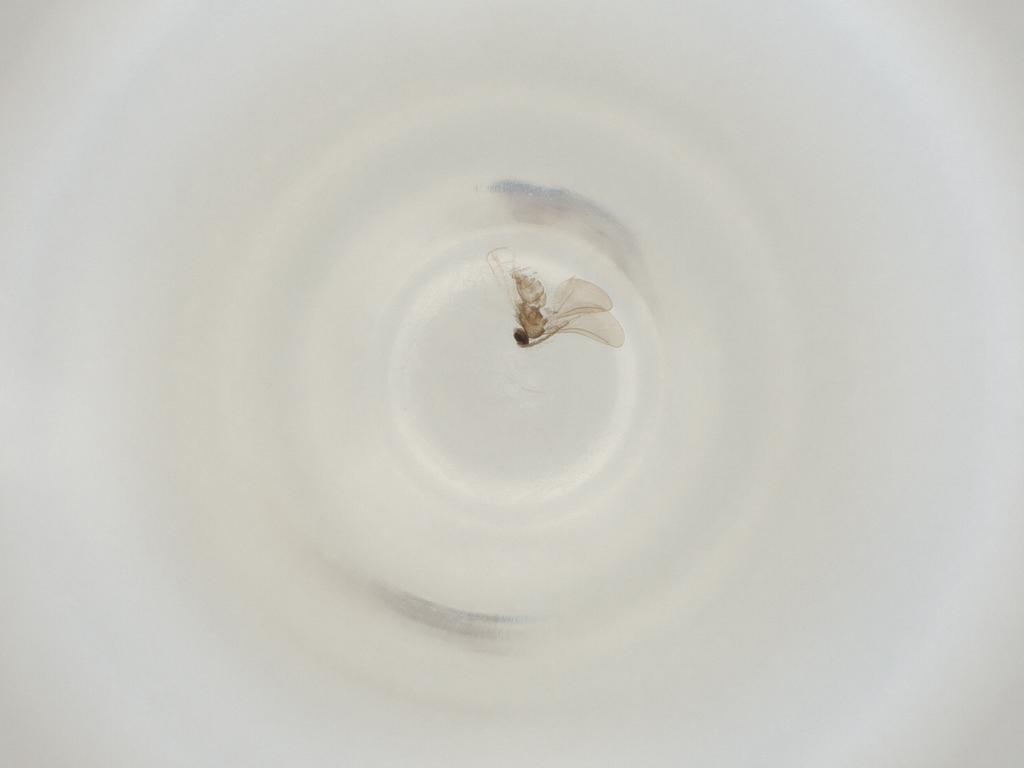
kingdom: Animalia
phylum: Arthropoda
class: Insecta
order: Diptera
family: Cecidomyiidae
